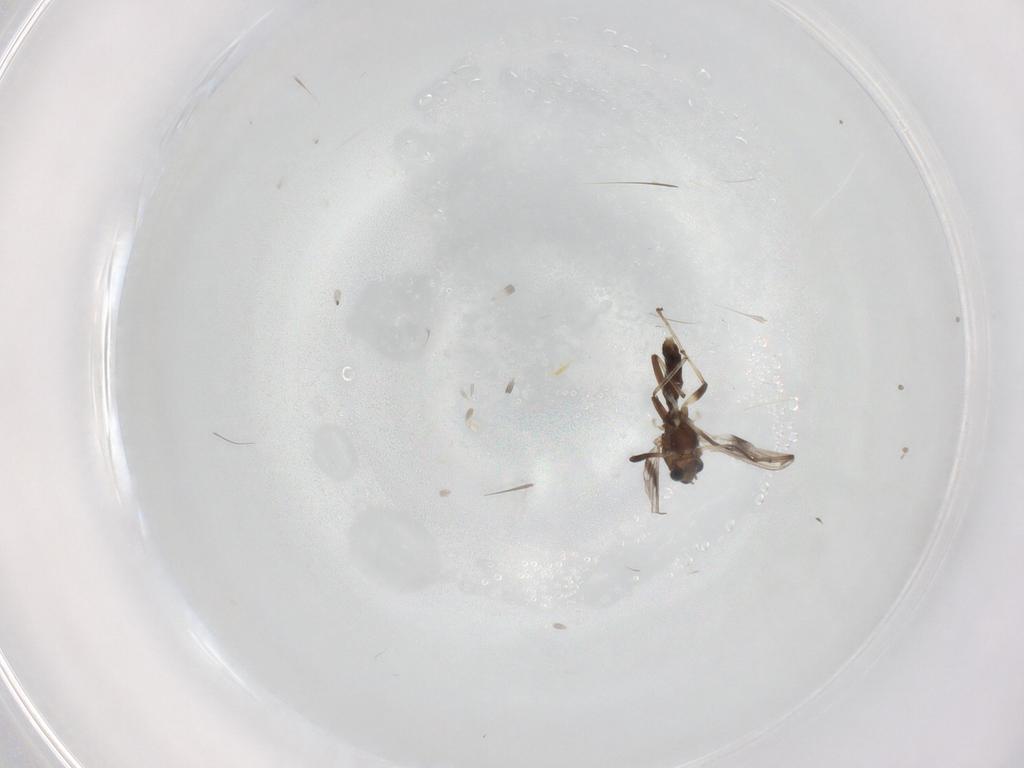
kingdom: Animalia
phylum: Arthropoda
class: Insecta
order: Diptera
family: Chironomidae
